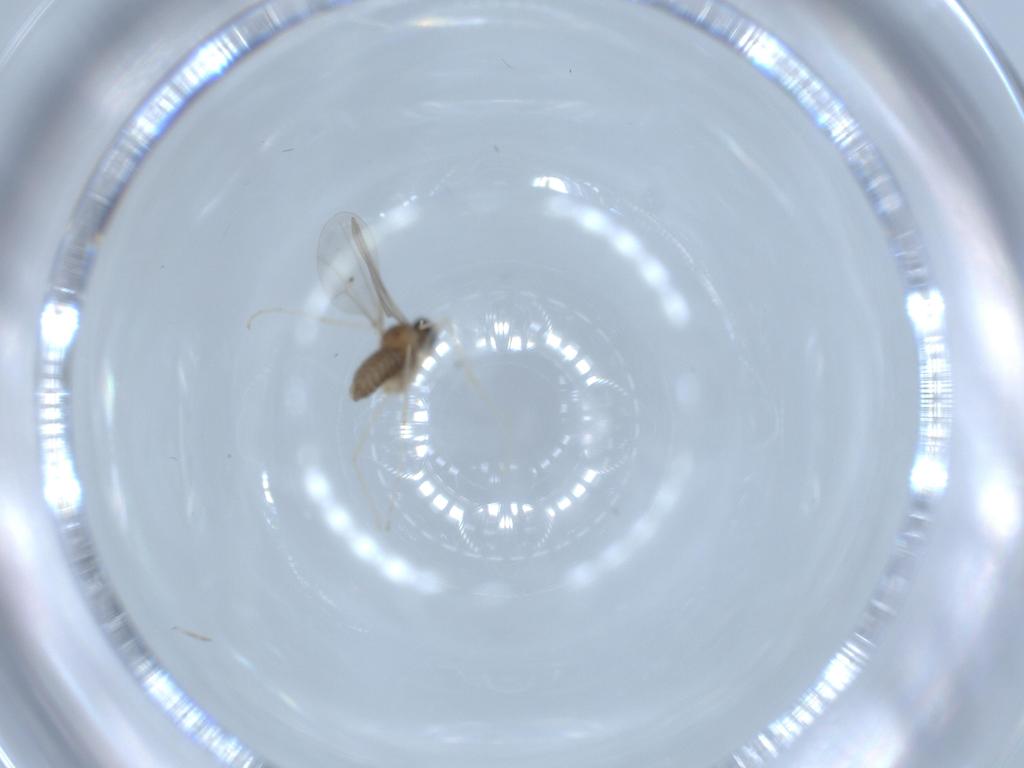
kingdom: Animalia
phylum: Arthropoda
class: Insecta
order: Diptera
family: Cecidomyiidae
